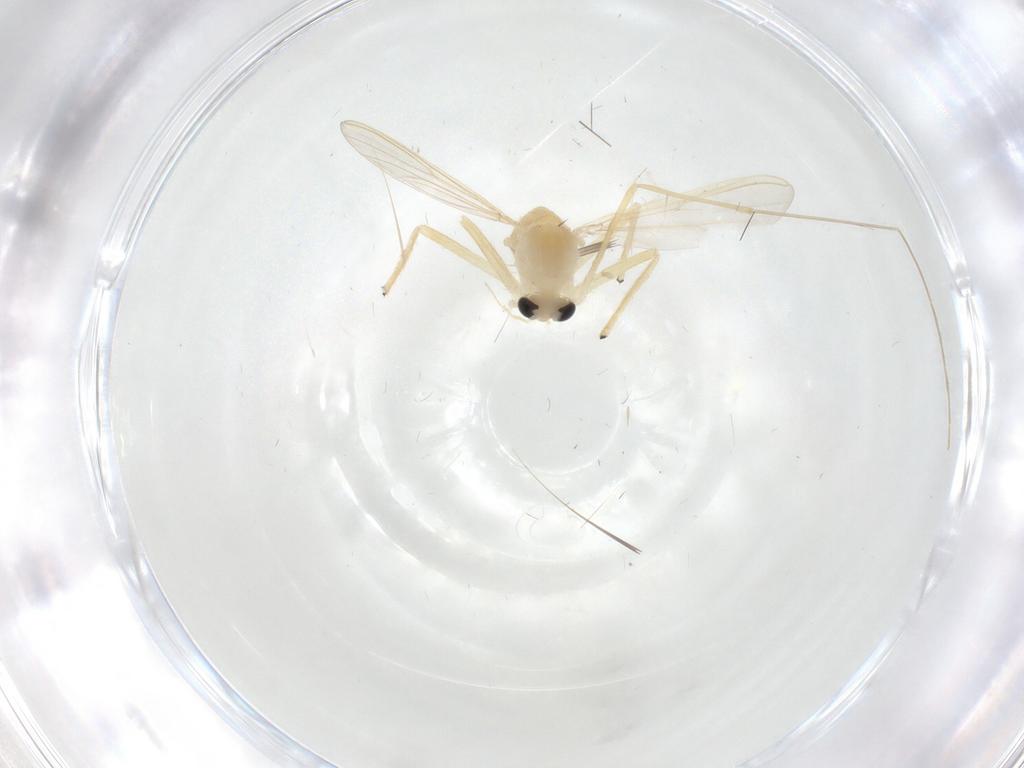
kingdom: Animalia
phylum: Arthropoda
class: Insecta
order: Diptera
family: Chironomidae
